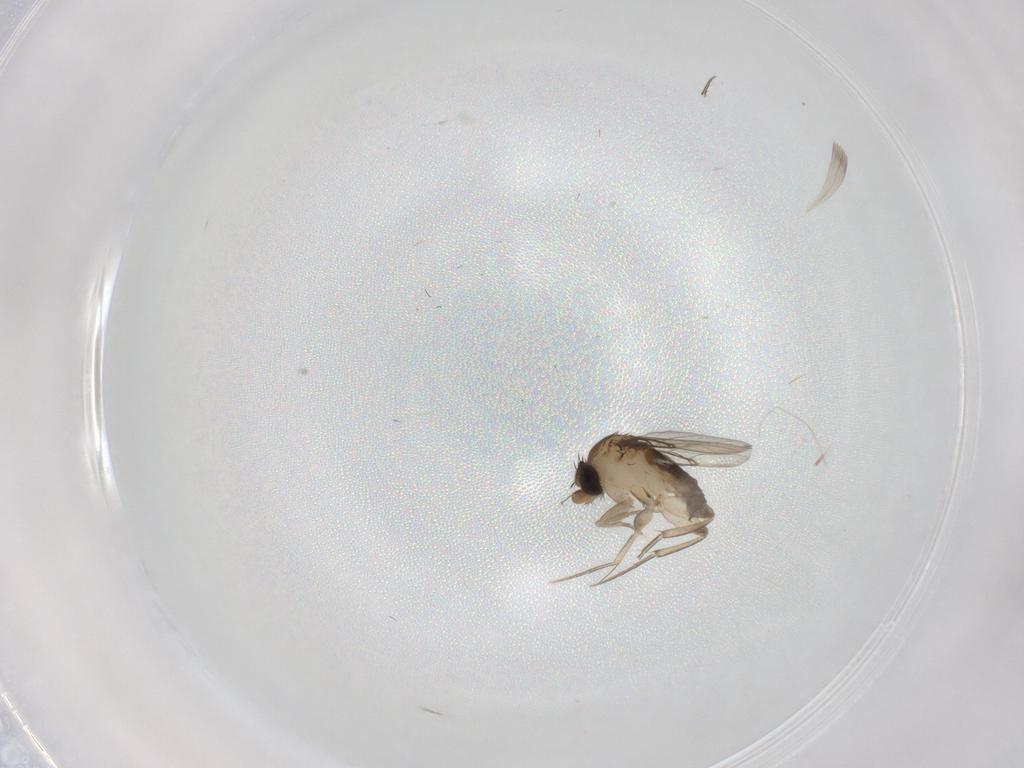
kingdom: Animalia
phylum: Arthropoda
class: Insecta
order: Diptera
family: Phoridae
